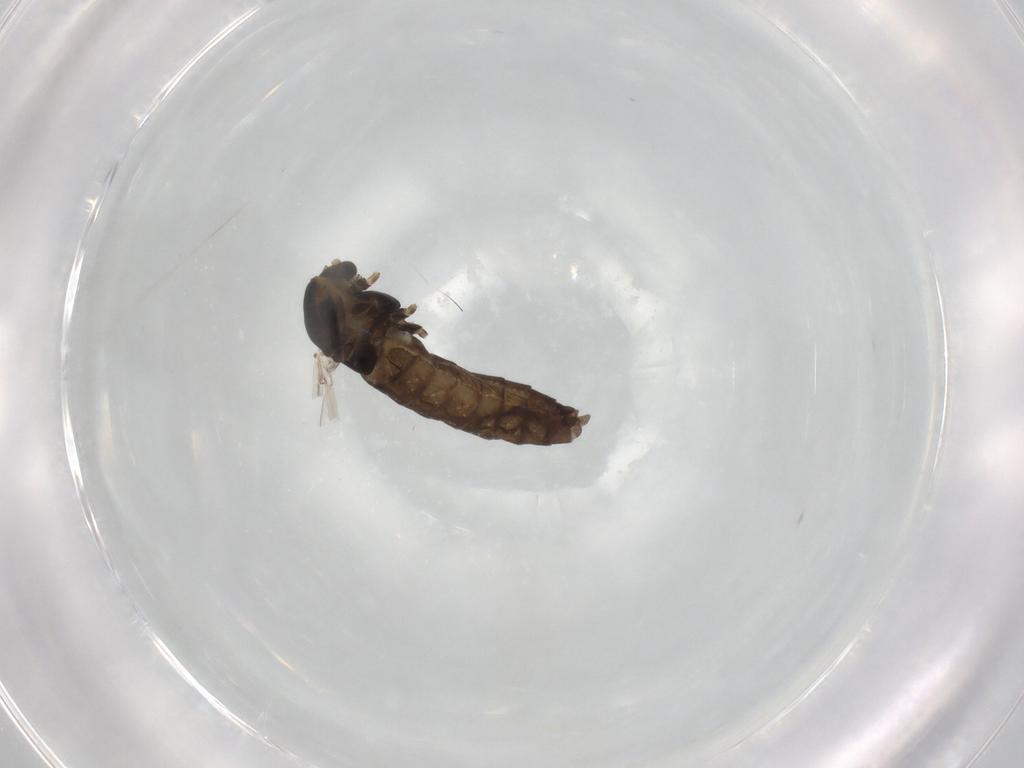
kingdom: Animalia
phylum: Arthropoda
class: Insecta
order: Diptera
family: Chironomidae
